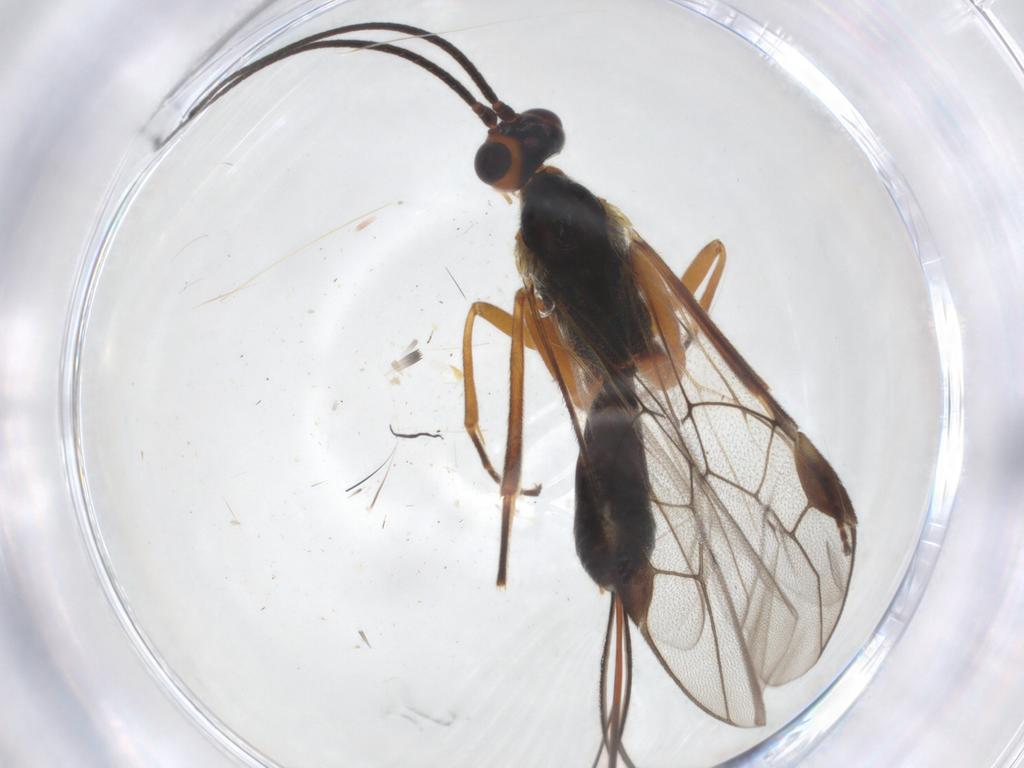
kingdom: Animalia
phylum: Arthropoda
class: Insecta
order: Hymenoptera
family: Braconidae
